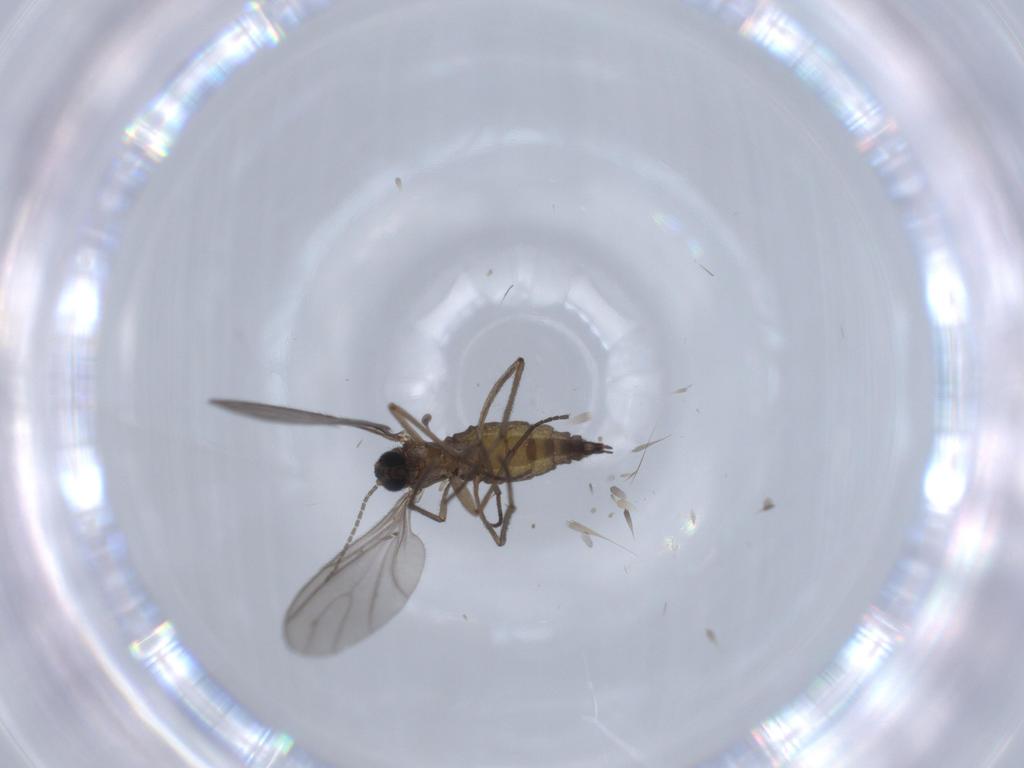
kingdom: Animalia
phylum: Arthropoda
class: Insecta
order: Diptera
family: Sciaridae
